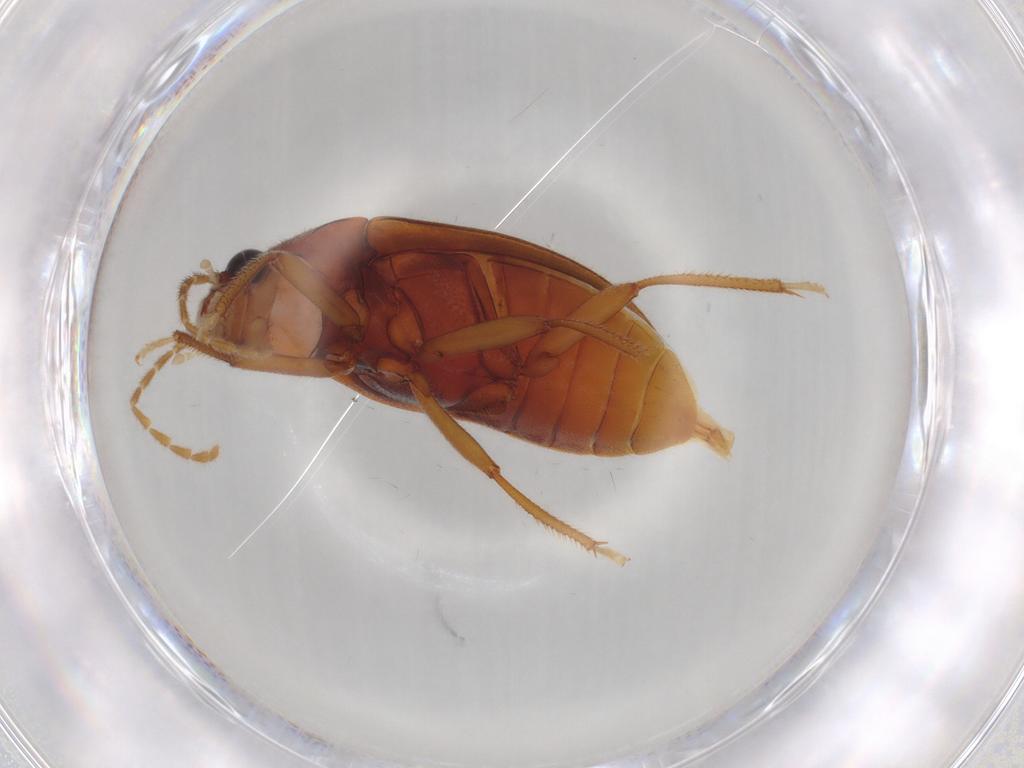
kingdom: Animalia
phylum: Arthropoda
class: Insecta
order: Coleoptera
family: Ptilodactylidae
